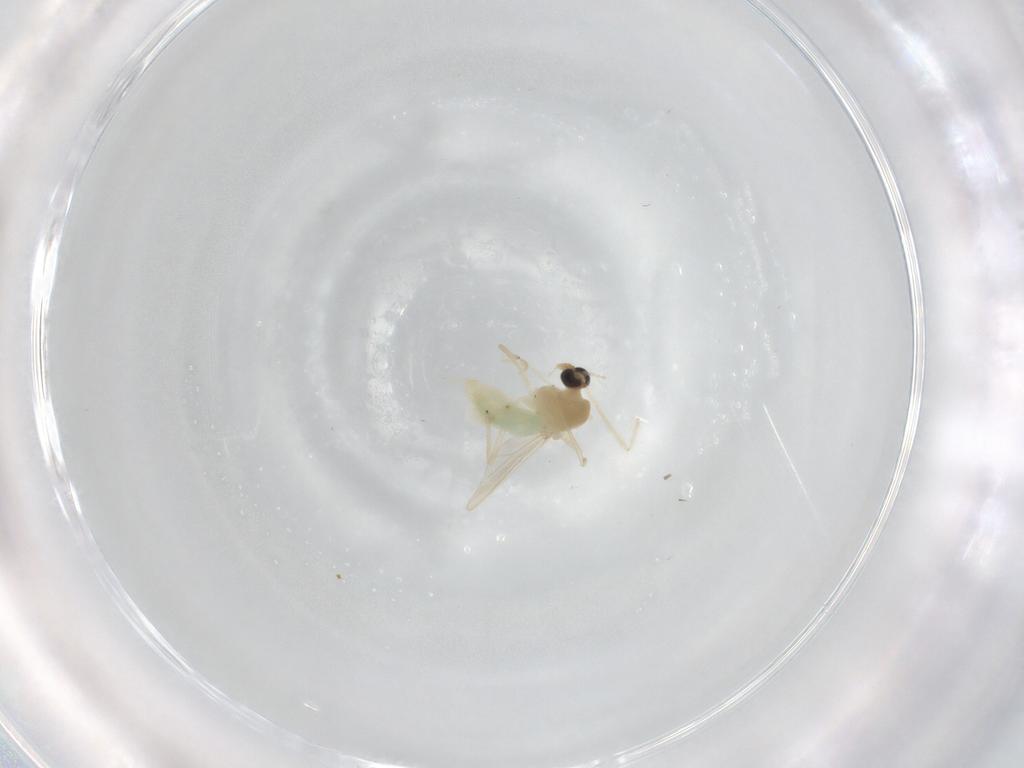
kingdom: Animalia
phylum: Arthropoda
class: Insecta
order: Diptera
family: Chironomidae
